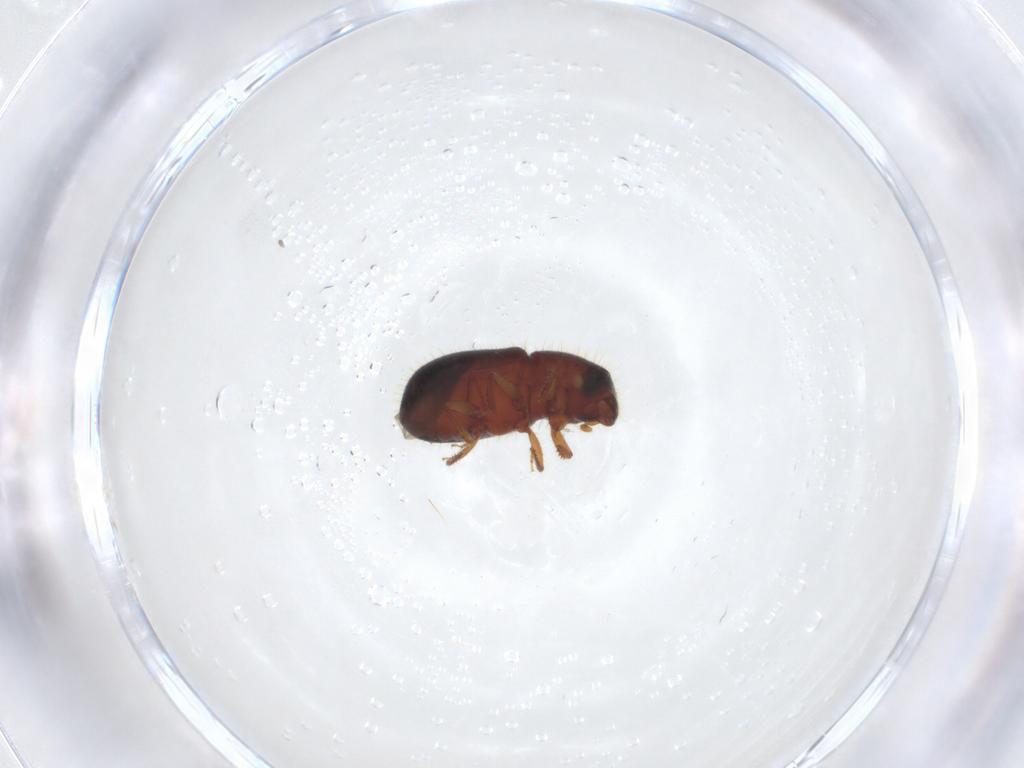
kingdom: Animalia
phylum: Arthropoda
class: Insecta
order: Coleoptera
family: Curculionidae
